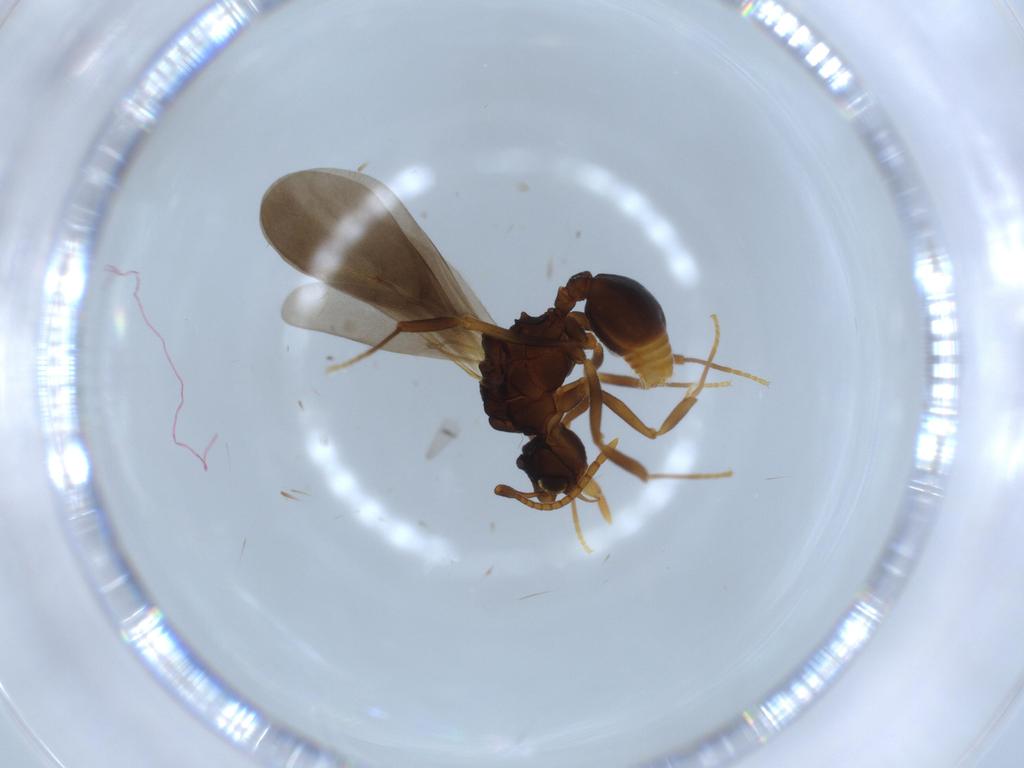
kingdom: Animalia
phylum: Arthropoda
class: Insecta
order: Hymenoptera
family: Formicidae
